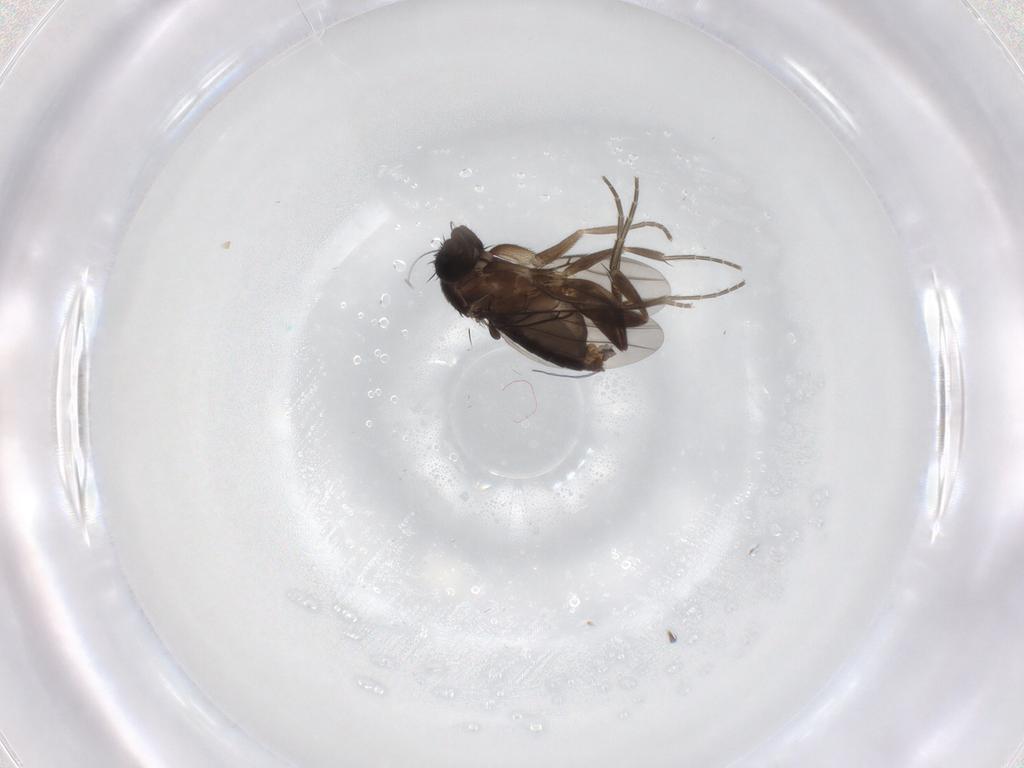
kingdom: Animalia
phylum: Arthropoda
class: Insecta
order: Diptera
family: Phoridae
